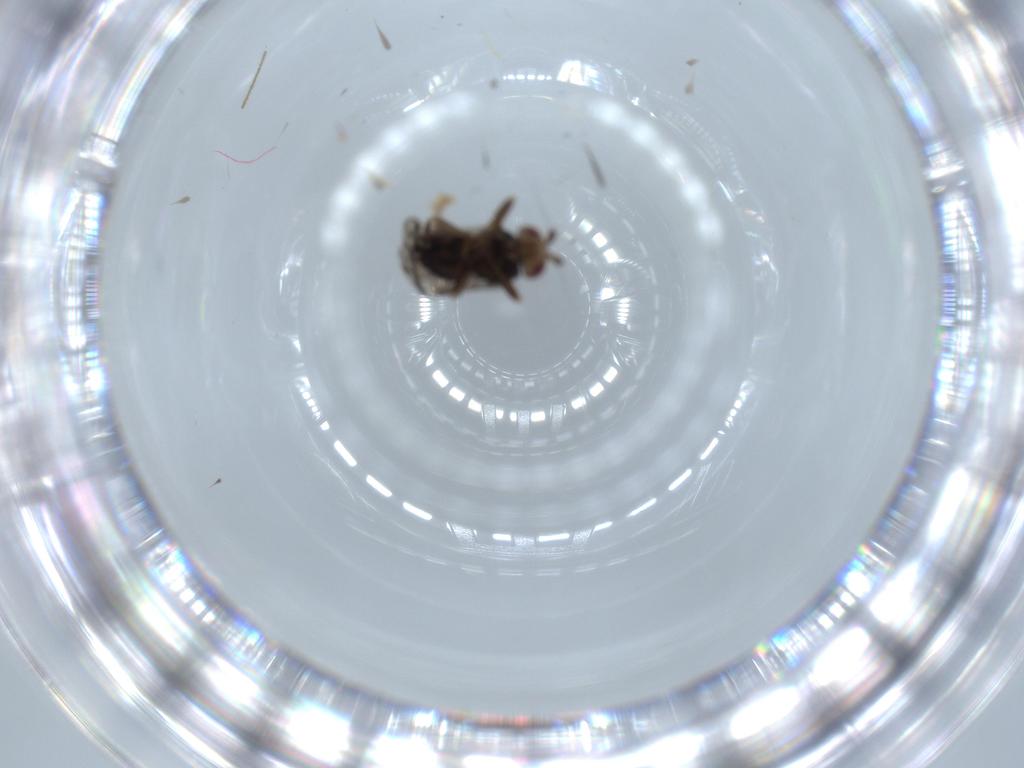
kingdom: Animalia
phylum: Arthropoda
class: Insecta
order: Diptera
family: Sphaeroceridae
